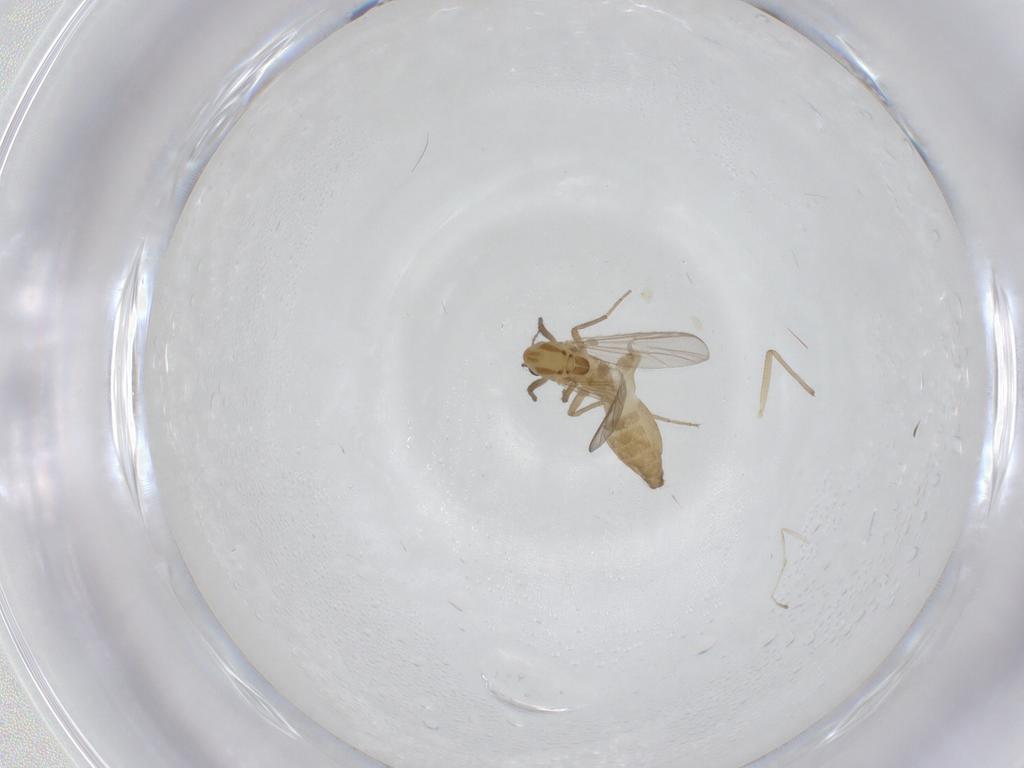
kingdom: Animalia
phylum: Arthropoda
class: Insecta
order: Diptera
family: Chironomidae
